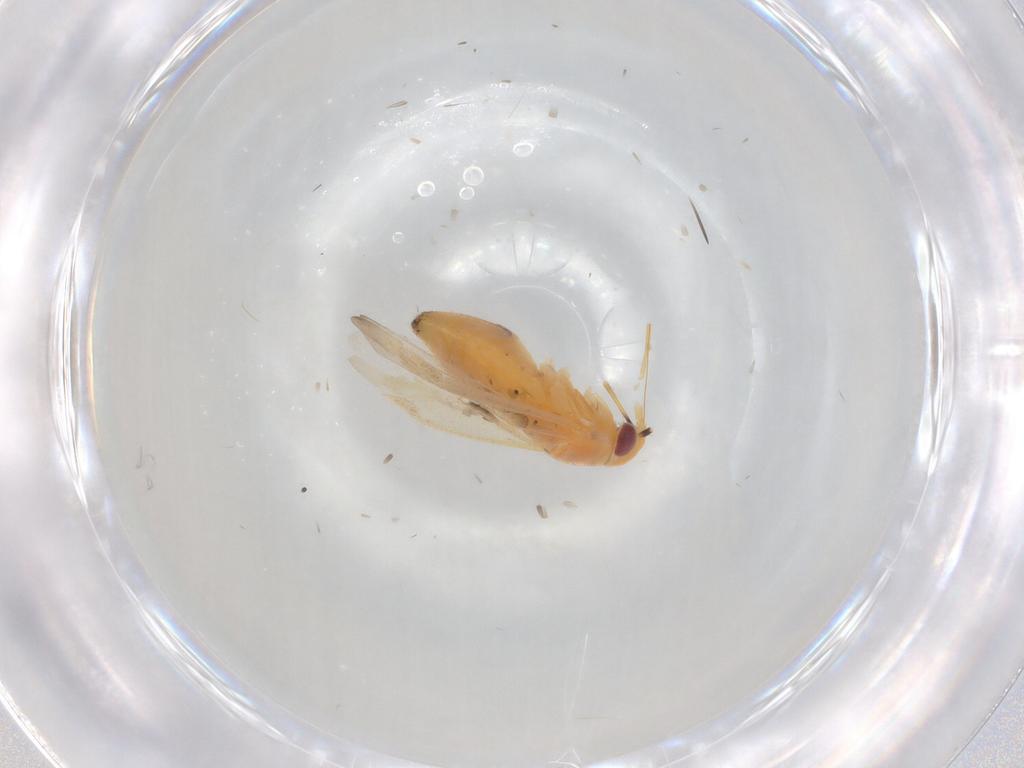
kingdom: Animalia
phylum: Arthropoda
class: Insecta
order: Hemiptera
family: Miridae
